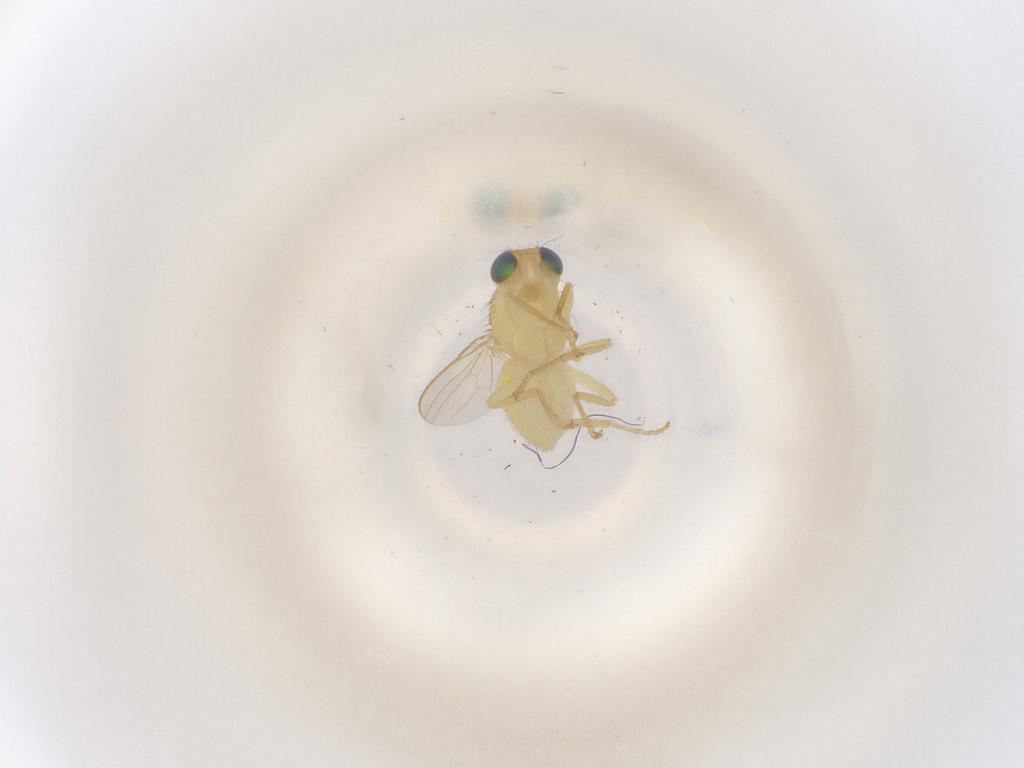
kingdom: Animalia
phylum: Arthropoda
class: Insecta
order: Diptera
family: Chyromyidae
